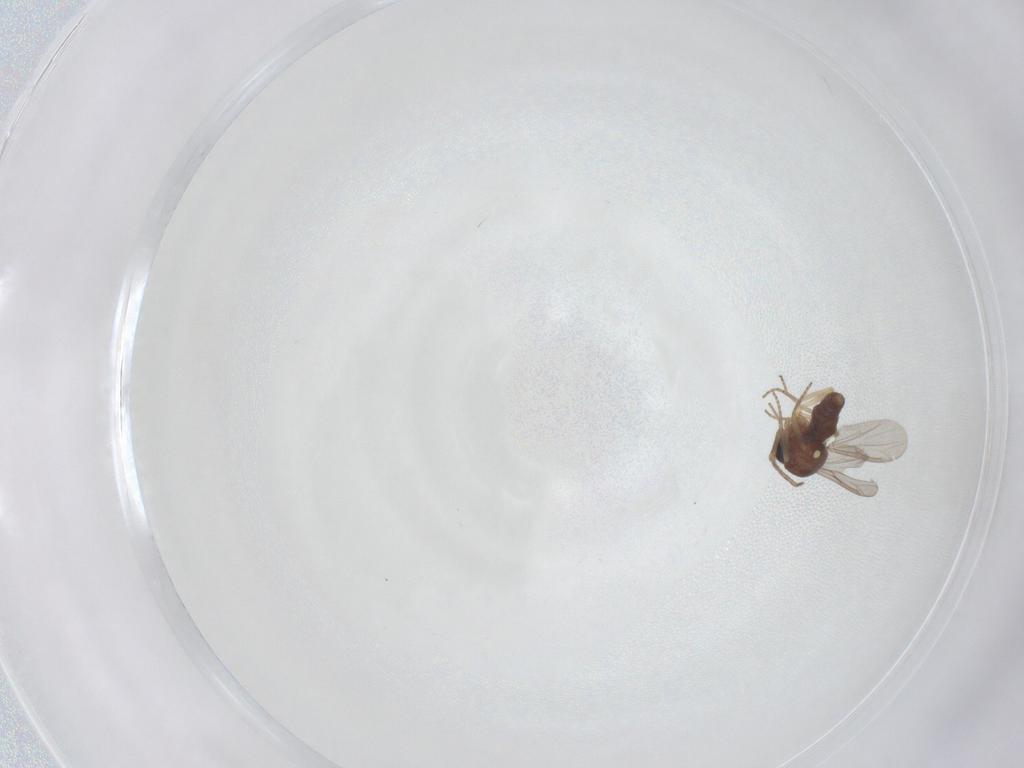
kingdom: Animalia
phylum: Arthropoda
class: Insecta
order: Diptera
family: Ceratopogonidae
